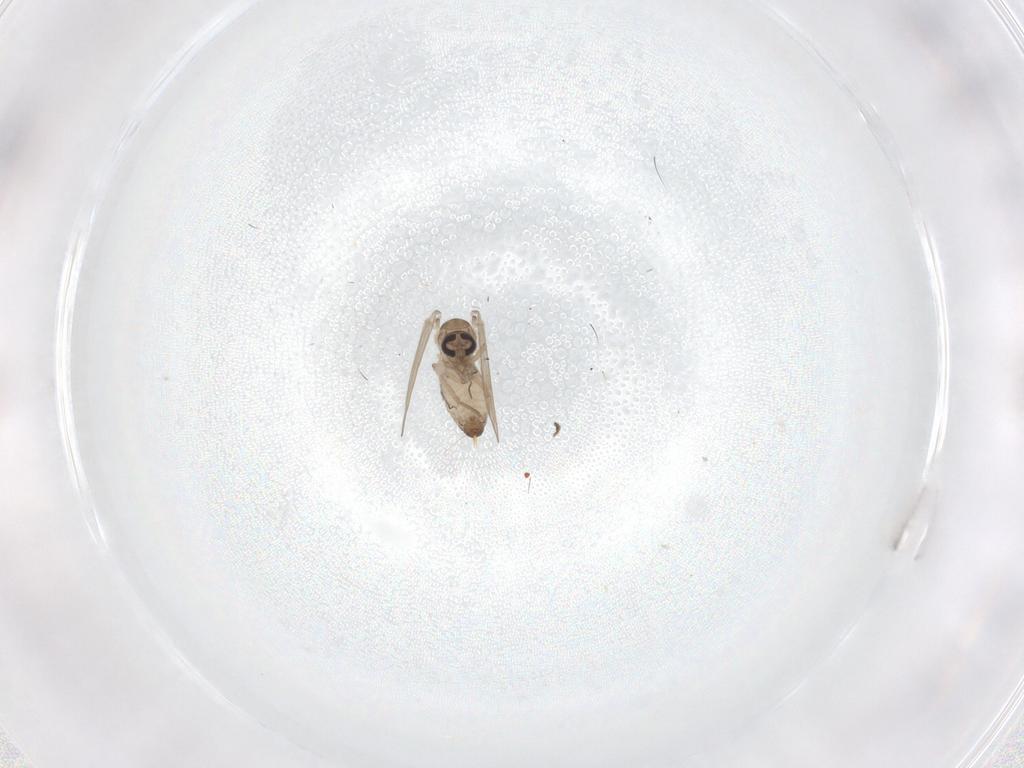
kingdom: Animalia
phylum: Arthropoda
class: Insecta
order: Diptera
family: Psychodidae
